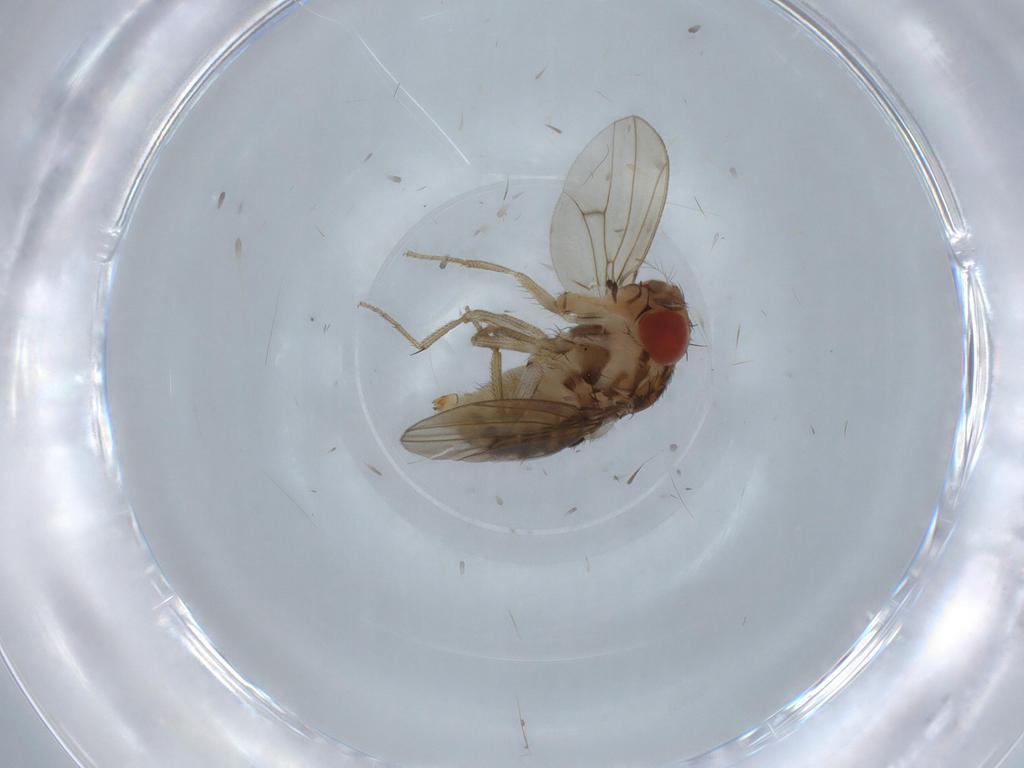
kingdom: Animalia
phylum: Arthropoda
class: Insecta
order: Diptera
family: Drosophilidae
